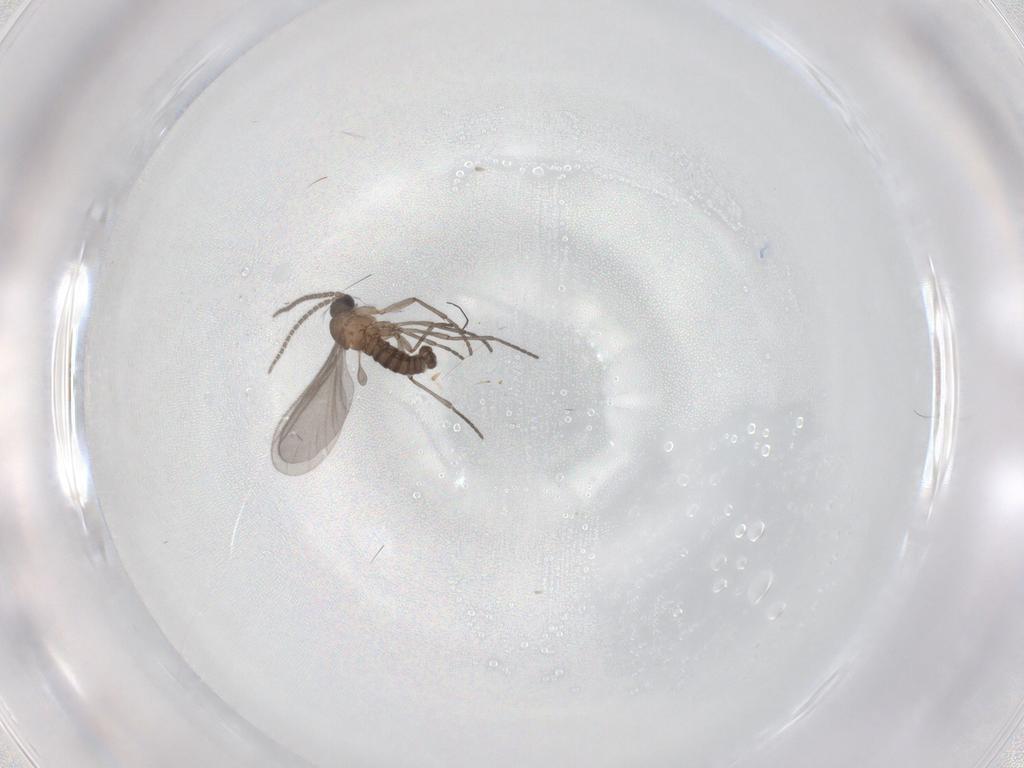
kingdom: Animalia
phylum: Arthropoda
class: Insecta
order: Diptera
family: Sciaridae
